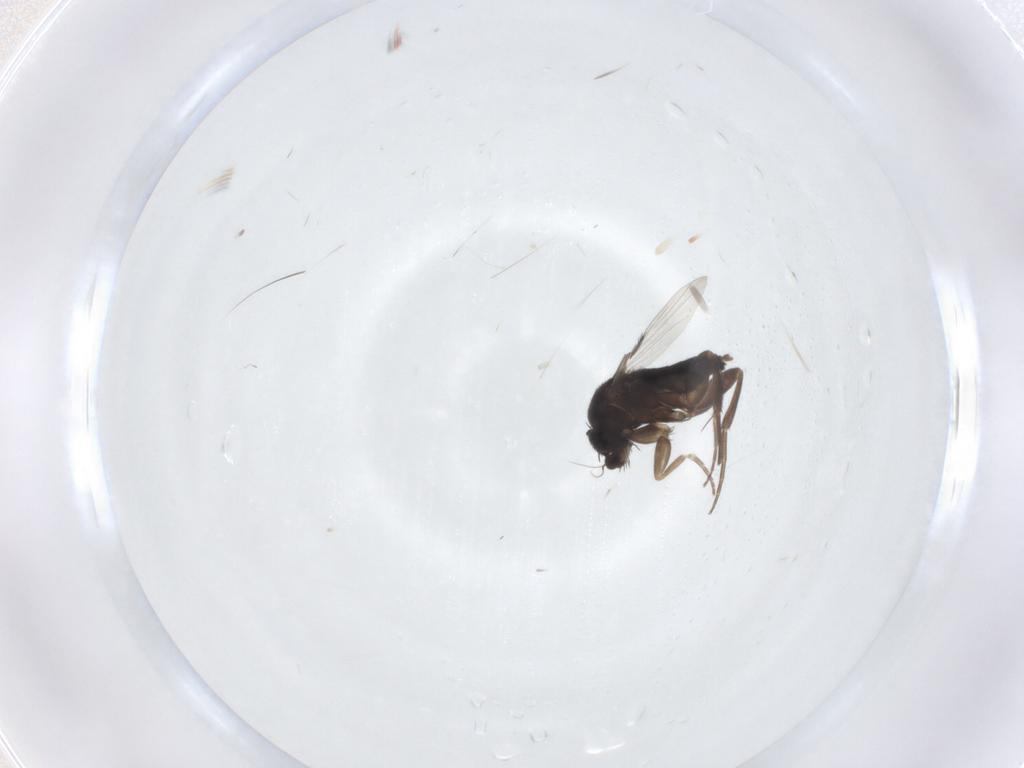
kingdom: Animalia
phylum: Arthropoda
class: Insecta
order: Diptera
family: Phoridae
